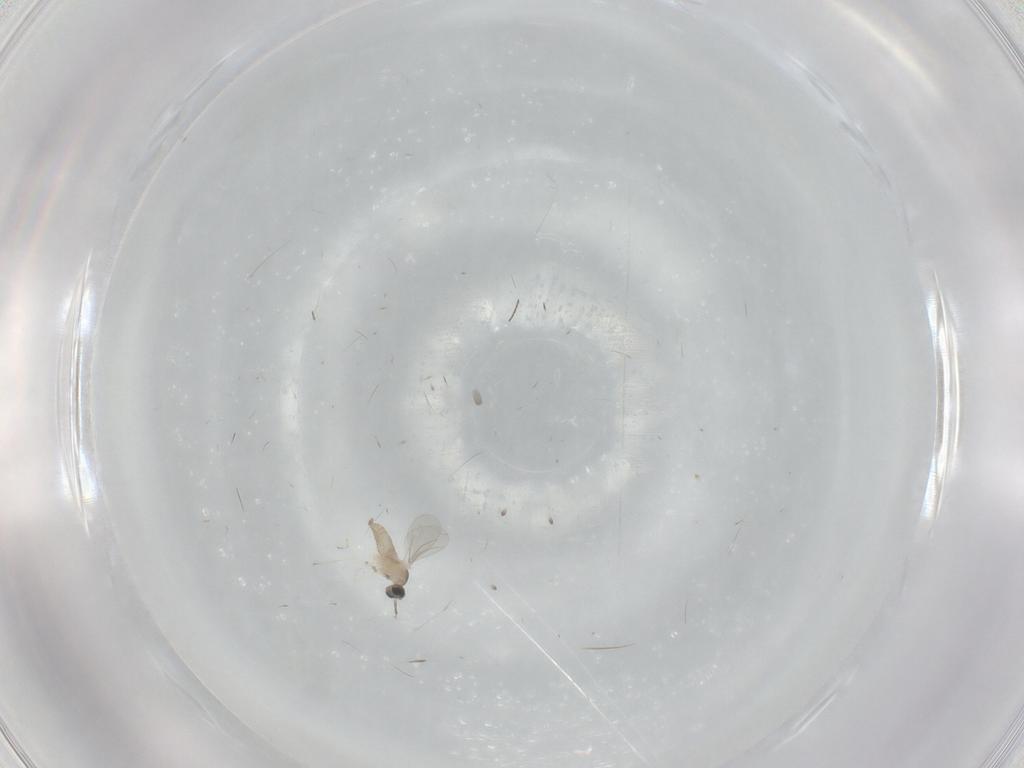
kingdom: Animalia
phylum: Arthropoda
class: Insecta
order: Diptera
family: Cecidomyiidae
